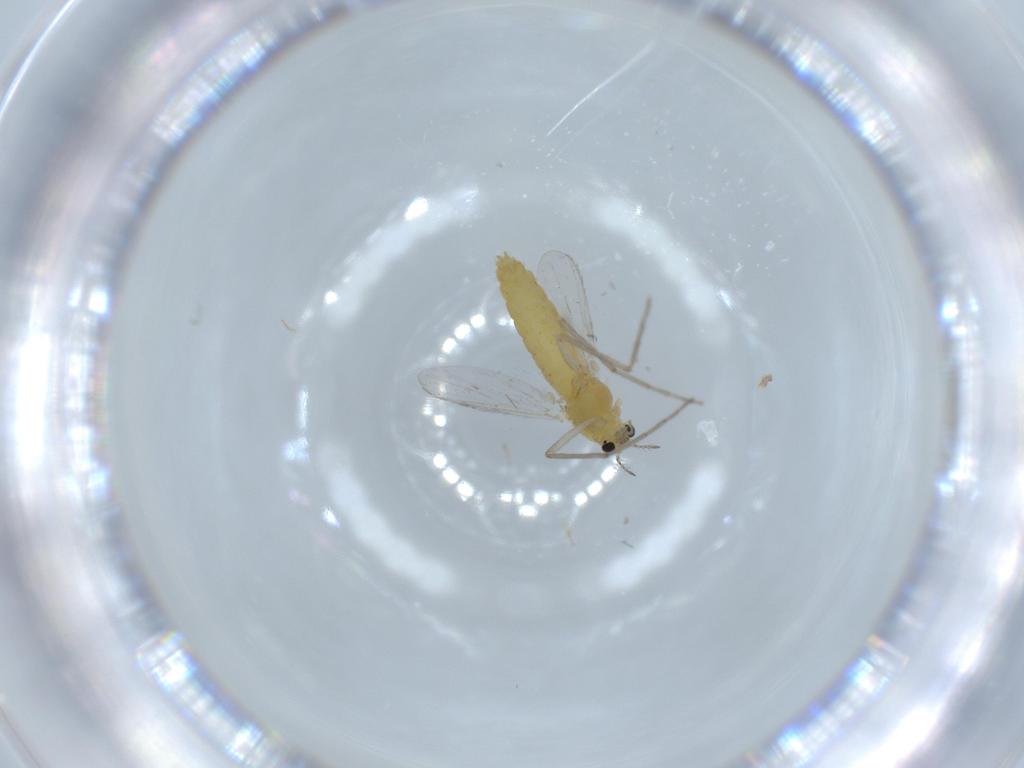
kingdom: Animalia
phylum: Arthropoda
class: Insecta
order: Diptera
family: Chironomidae
